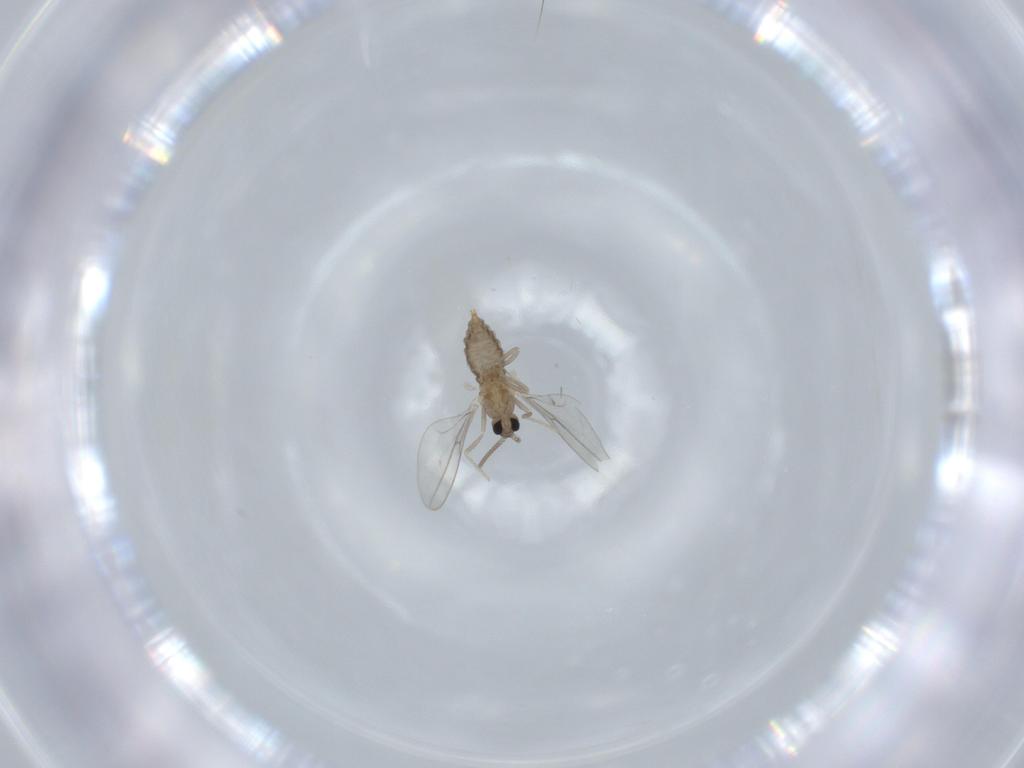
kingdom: Animalia
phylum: Arthropoda
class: Insecta
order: Diptera
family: Cecidomyiidae
